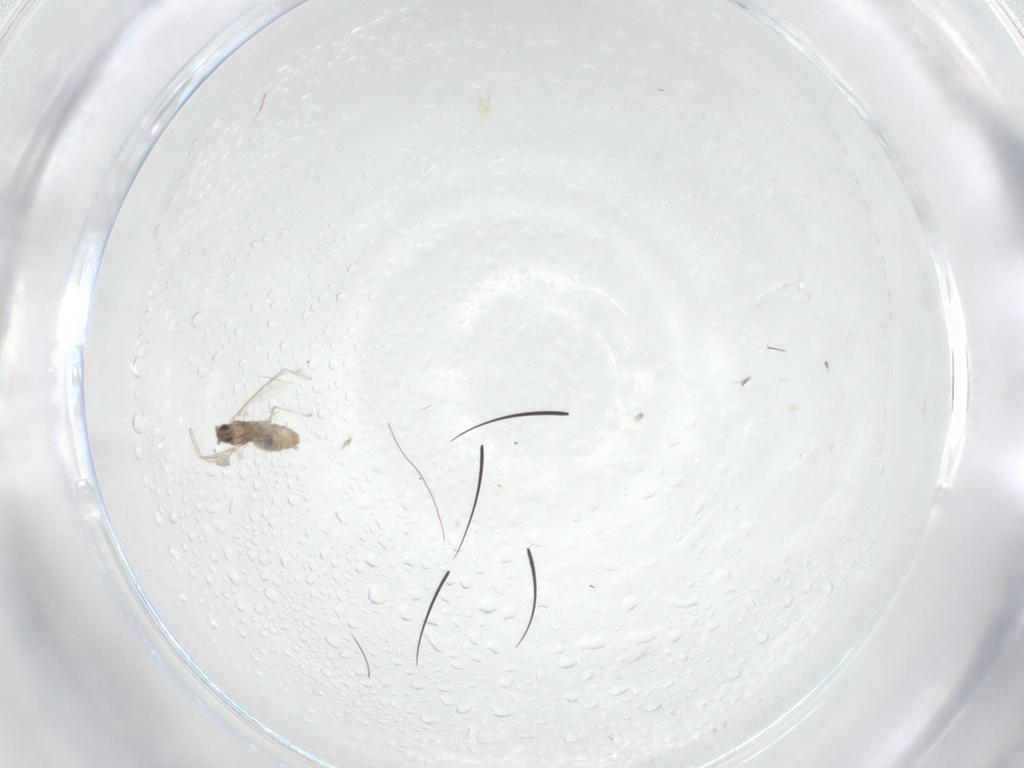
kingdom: Animalia
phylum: Arthropoda
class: Insecta
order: Diptera
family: Cecidomyiidae
